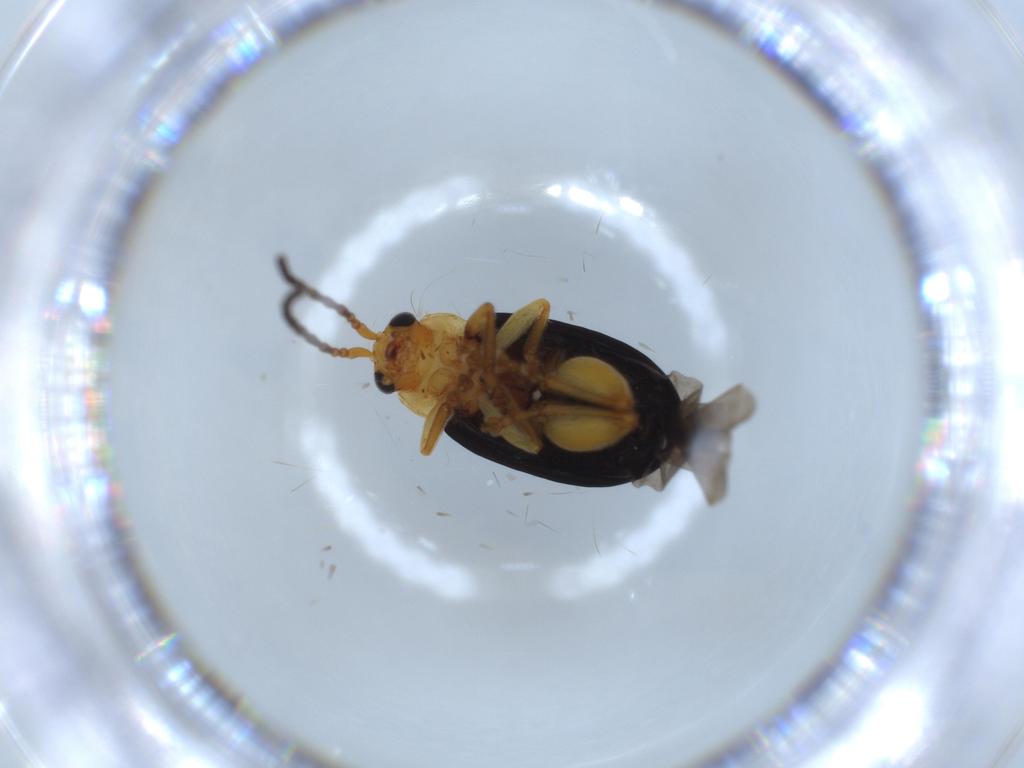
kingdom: Animalia
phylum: Arthropoda
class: Insecta
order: Coleoptera
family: Chrysomelidae
